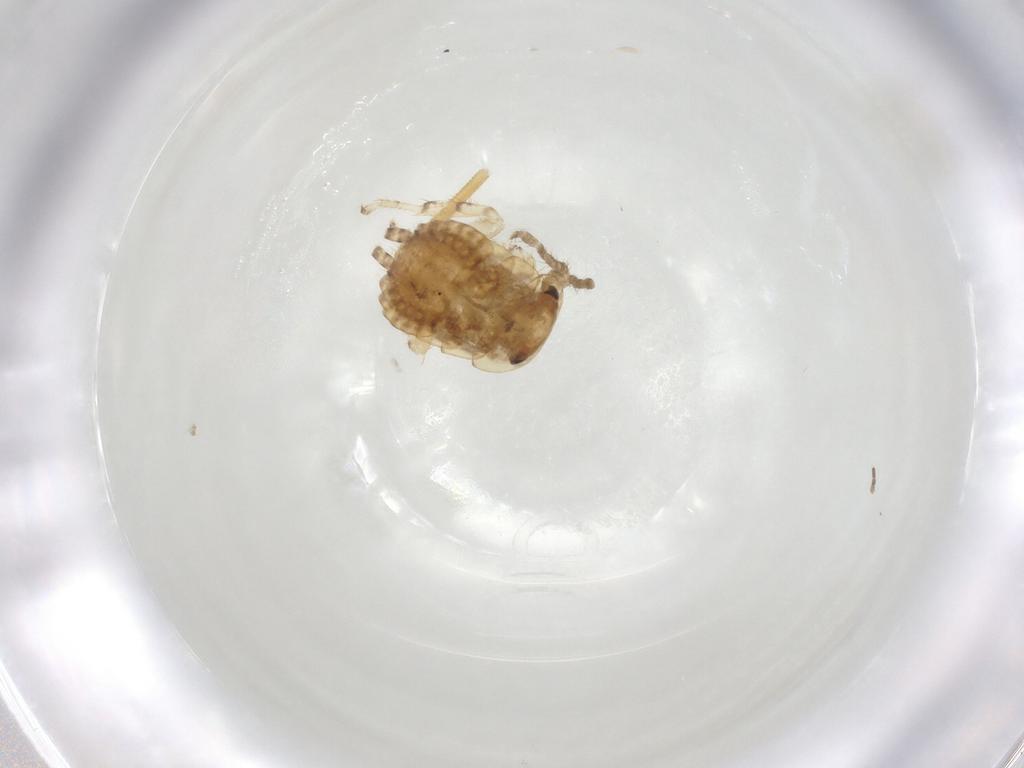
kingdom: Animalia
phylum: Arthropoda
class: Insecta
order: Blattodea
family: Ectobiidae
